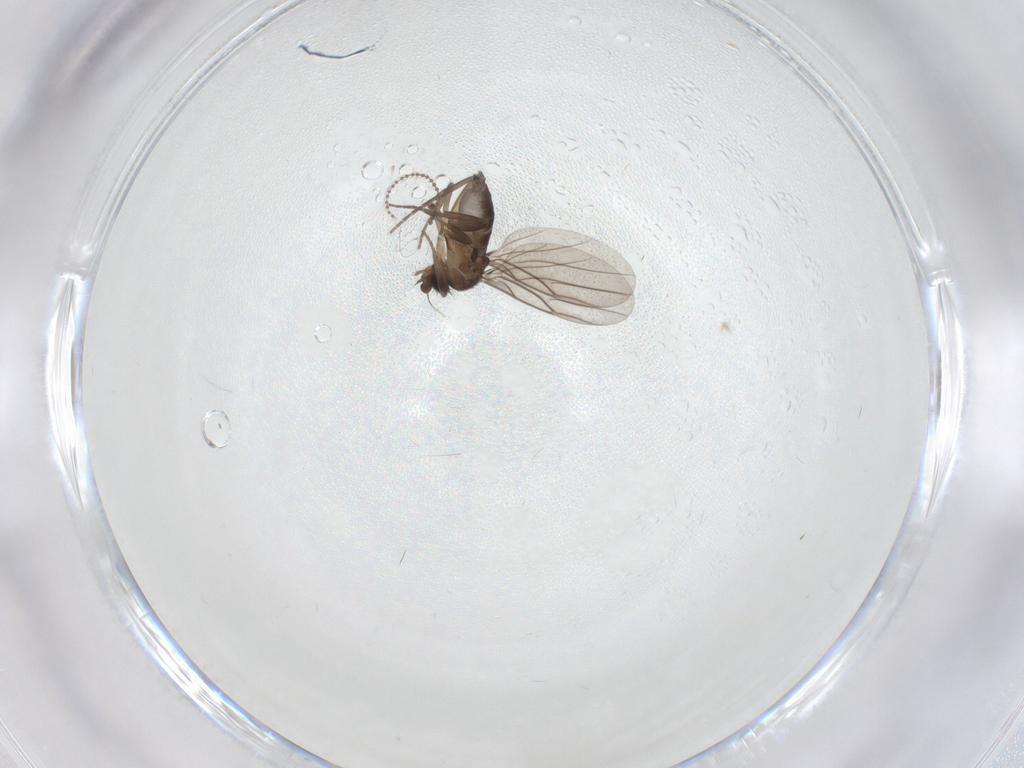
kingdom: Animalia
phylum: Arthropoda
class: Insecta
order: Diptera
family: Cecidomyiidae
